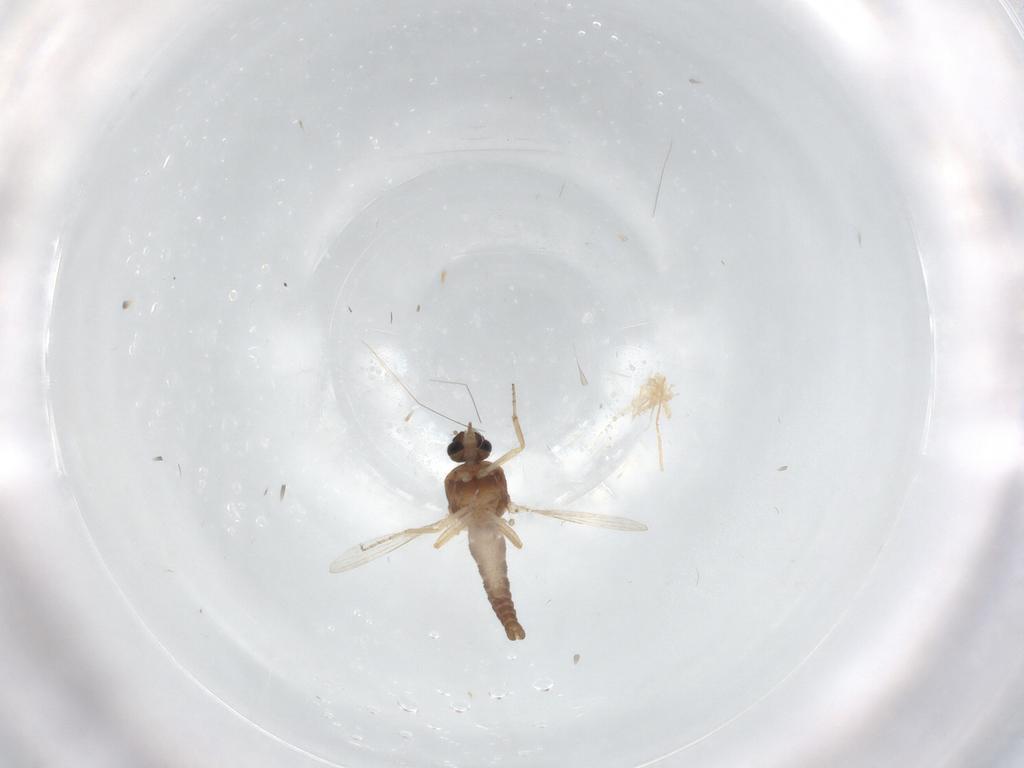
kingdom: Animalia
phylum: Arthropoda
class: Insecta
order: Diptera
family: Ceratopogonidae
